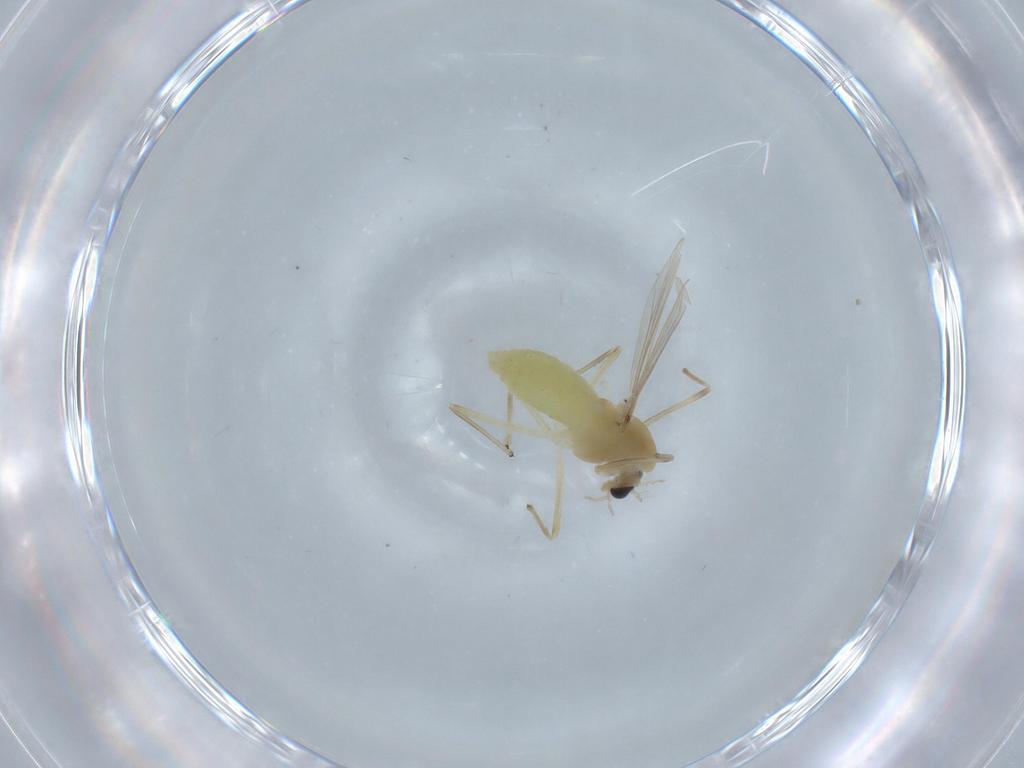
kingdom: Animalia
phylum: Arthropoda
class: Insecta
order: Diptera
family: Chironomidae
